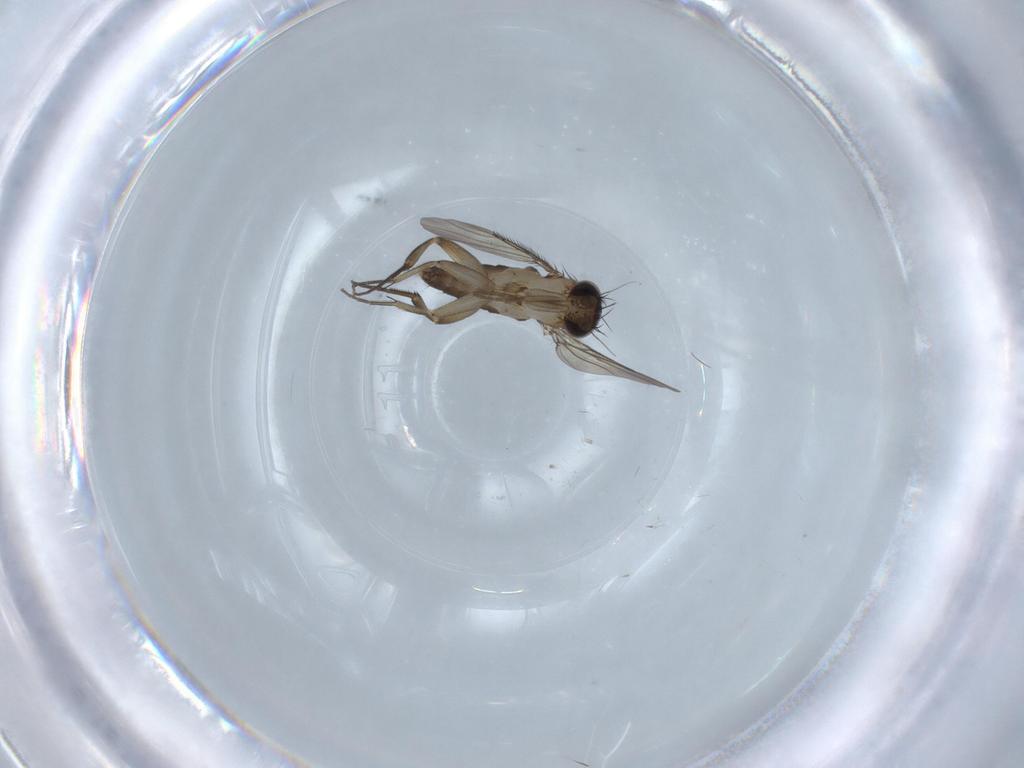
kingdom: Animalia
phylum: Arthropoda
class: Insecta
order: Diptera
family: Phoridae
